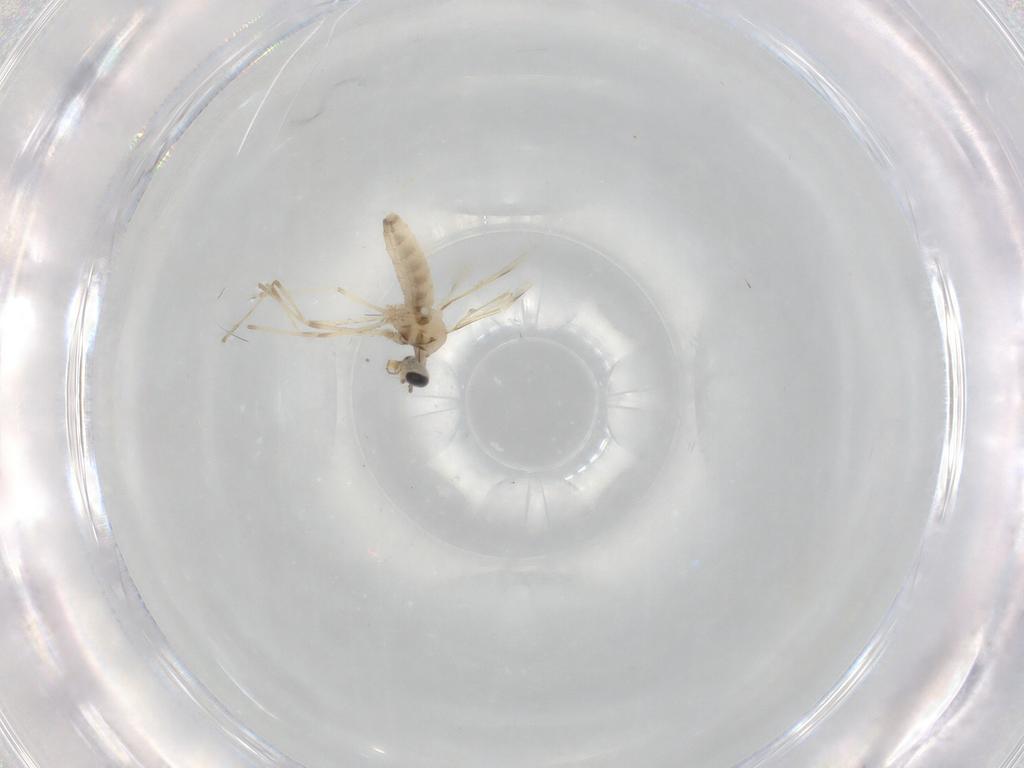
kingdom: Animalia
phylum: Arthropoda
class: Insecta
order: Diptera
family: Cecidomyiidae
